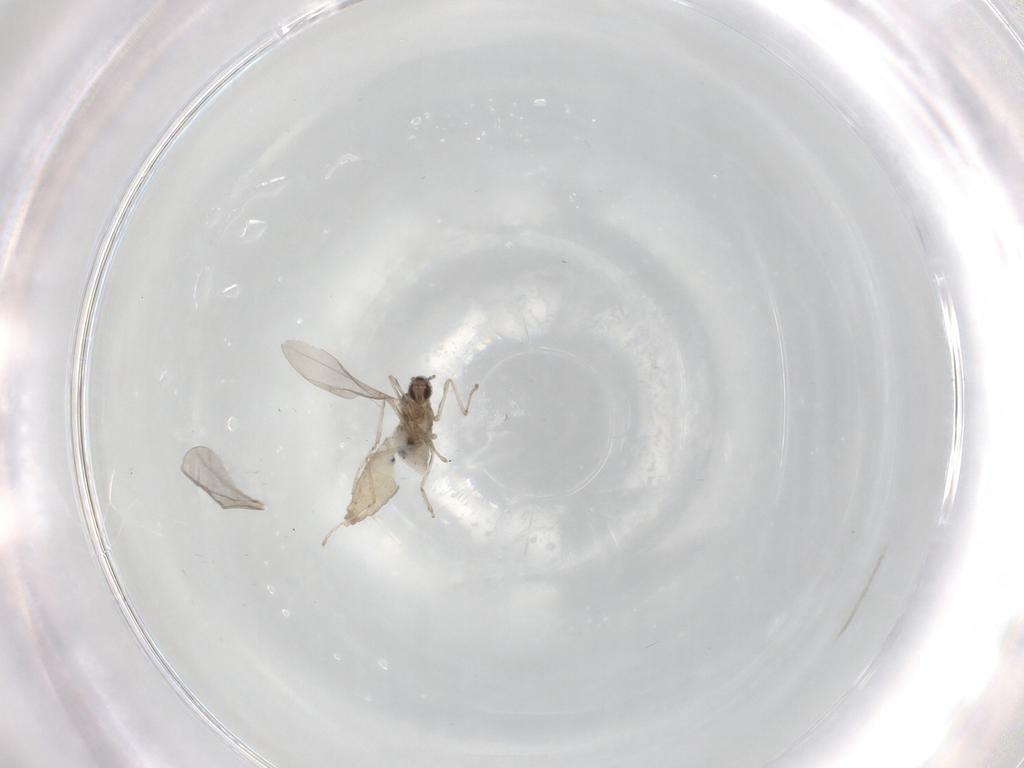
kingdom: Animalia
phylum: Arthropoda
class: Insecta
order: Diptera
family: Cecidomyiidae
